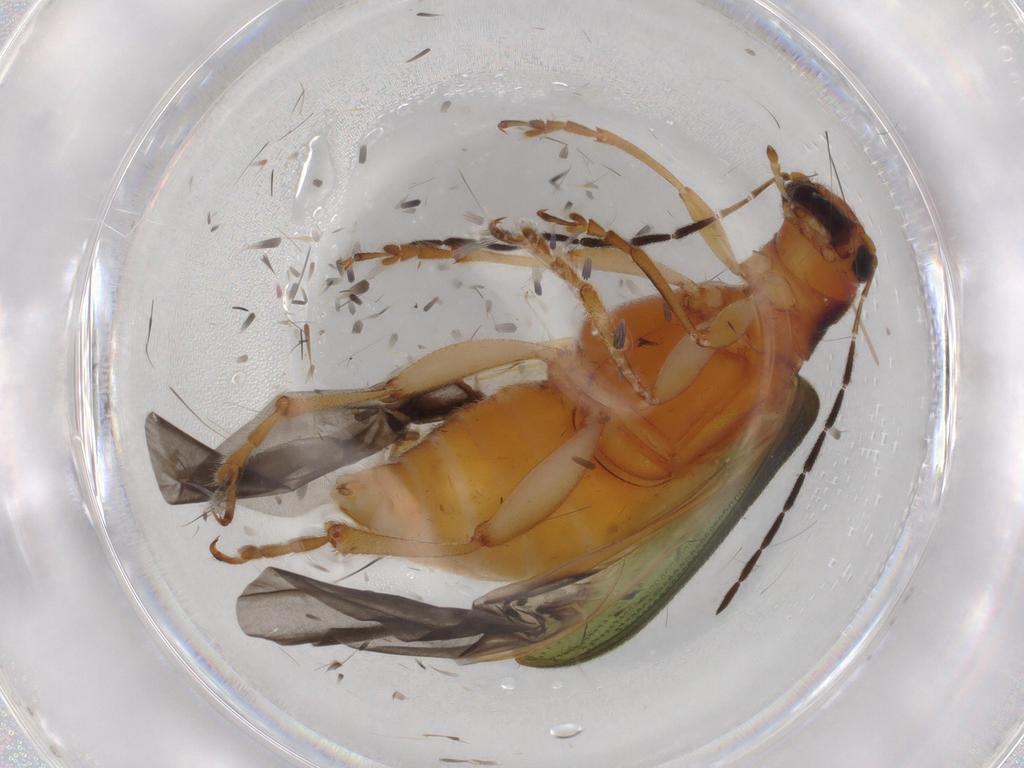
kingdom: Animalia
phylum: Arthropoda
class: Insecta
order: Coleoptera
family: Chrysomelidae
